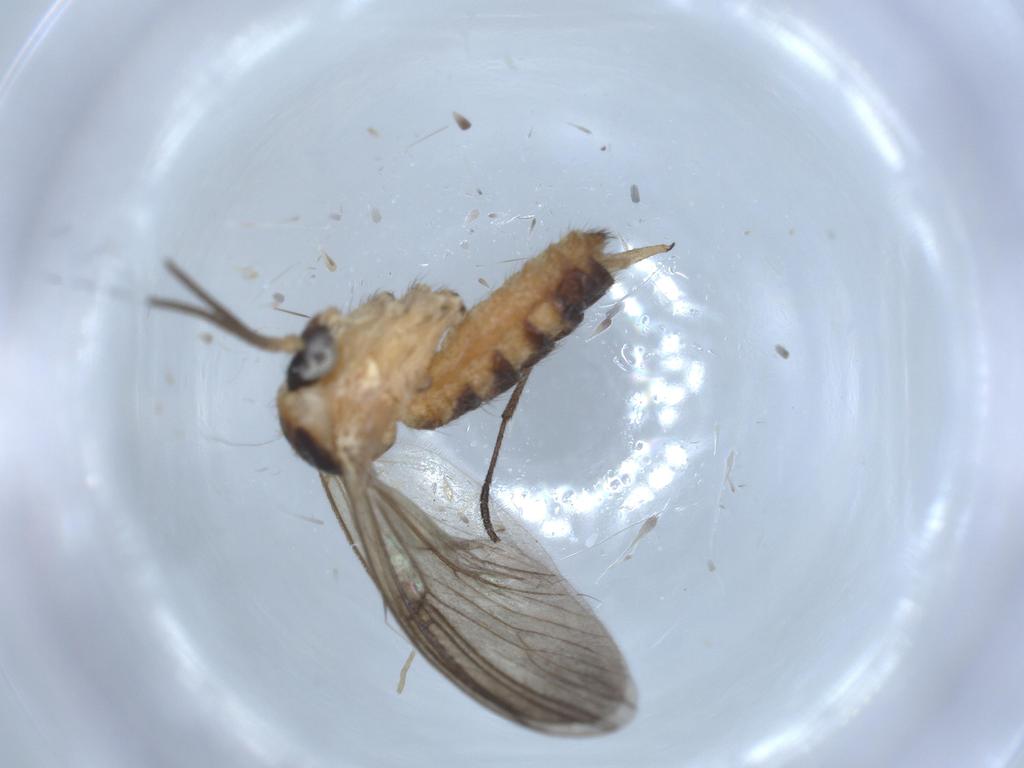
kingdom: Animalia
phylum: Arthropoda
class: Insecta
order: Diptera
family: Mycetophilidae
